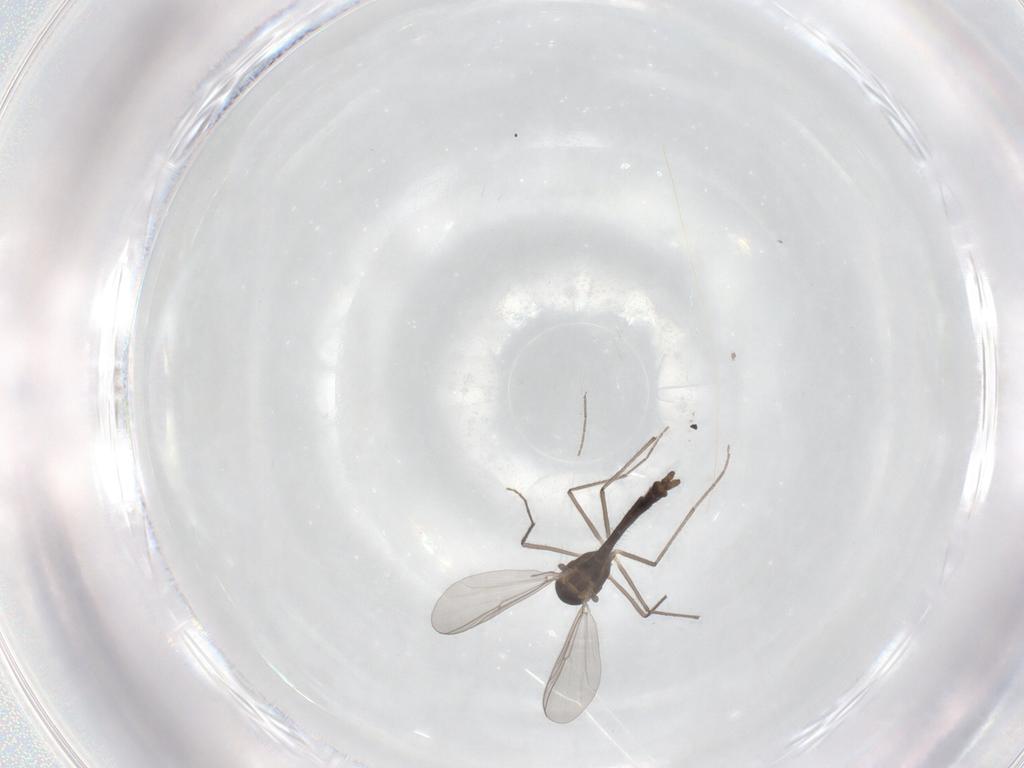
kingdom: Animalia
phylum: Arthropoda
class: Insecta
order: Diptera
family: Chironomidae
